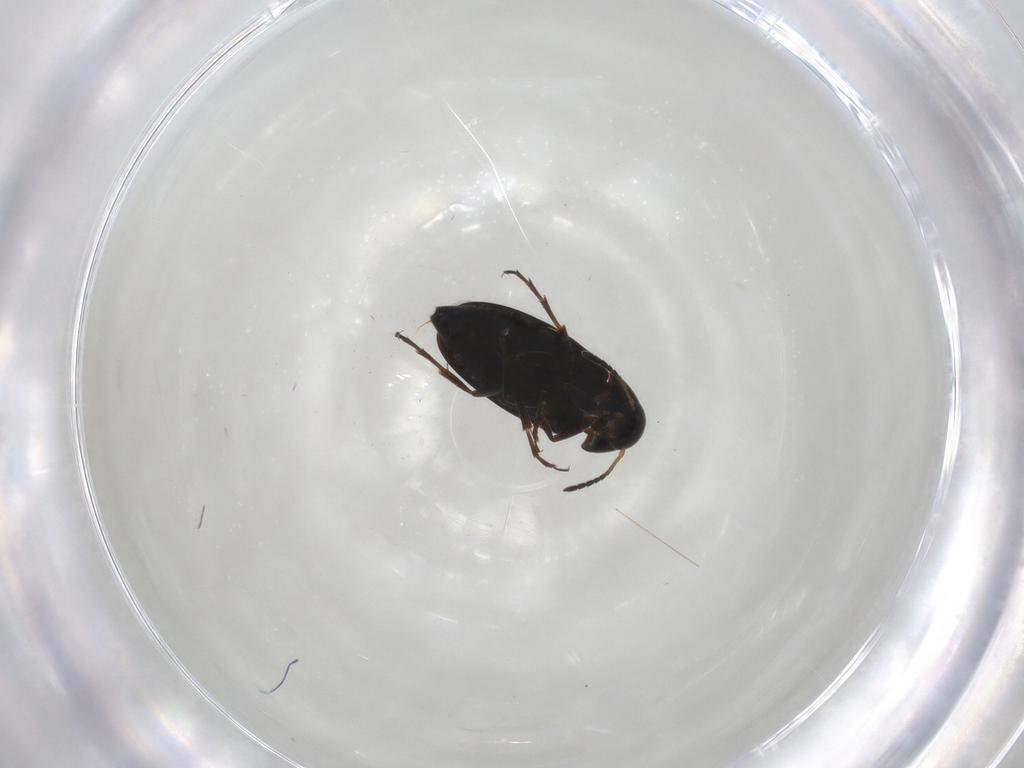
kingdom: Animalia
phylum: Arthropoda
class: Insecta
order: Coleoptera
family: Scraptiidae
